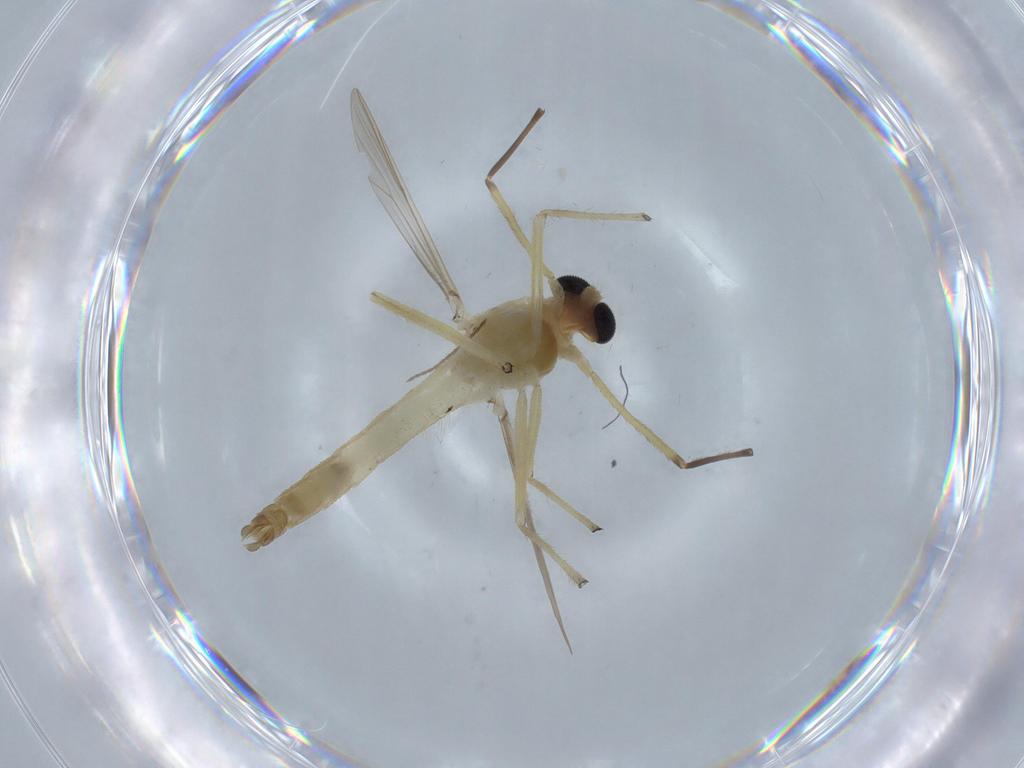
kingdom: Animalia
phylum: Arthropoda
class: Insecta
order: Diptera
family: Chironomidae
